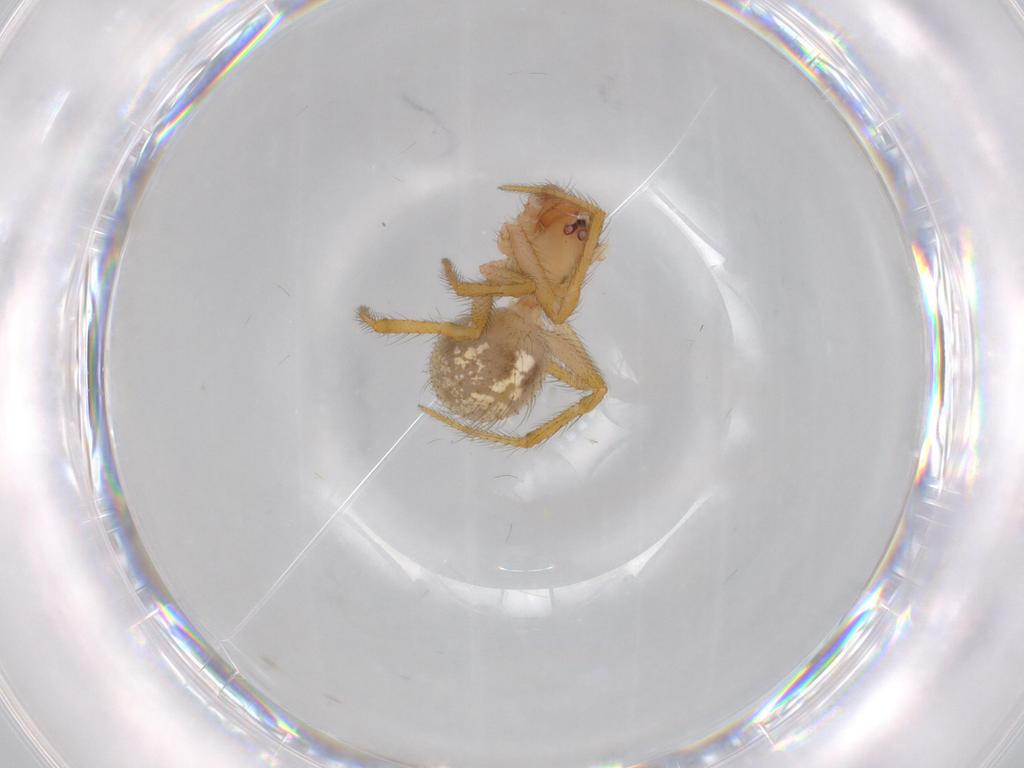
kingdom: Animalia
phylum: Arthropoda
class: Arachnida
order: Araneae
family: Theridiidae
